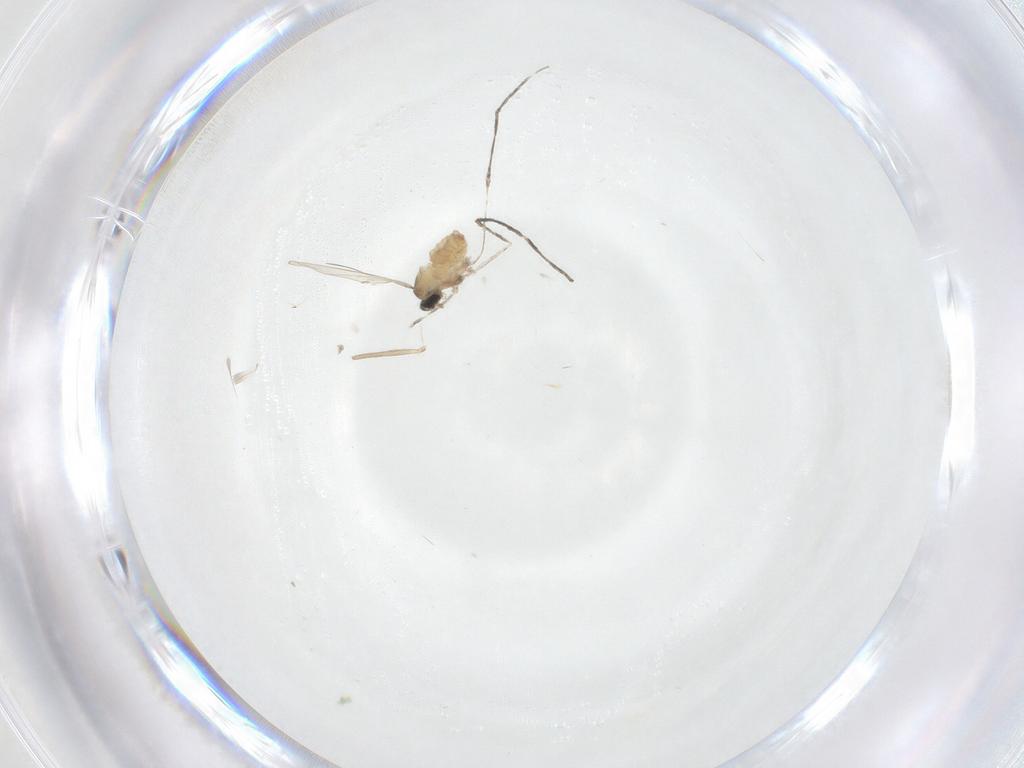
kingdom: Animalia
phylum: Arthropoda
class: Insecta
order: Diptera
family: Cecidomyiidae
